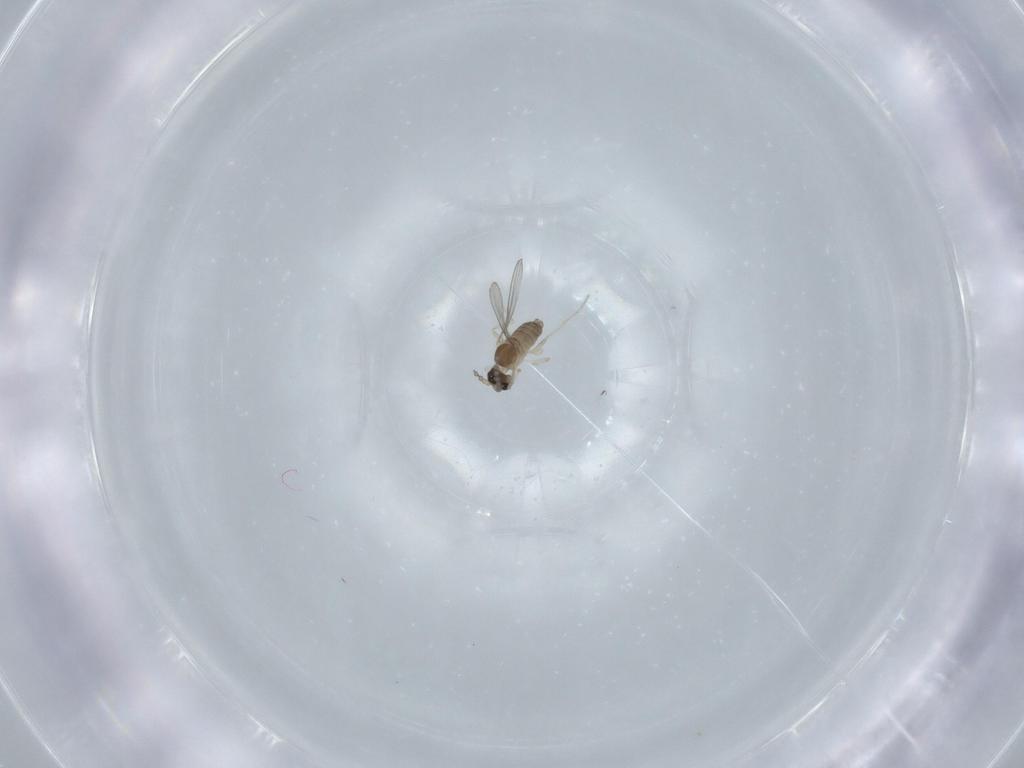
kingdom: Animalia
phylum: Arthropoda
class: Insecta
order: Diptera
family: Cecidomyiidae
